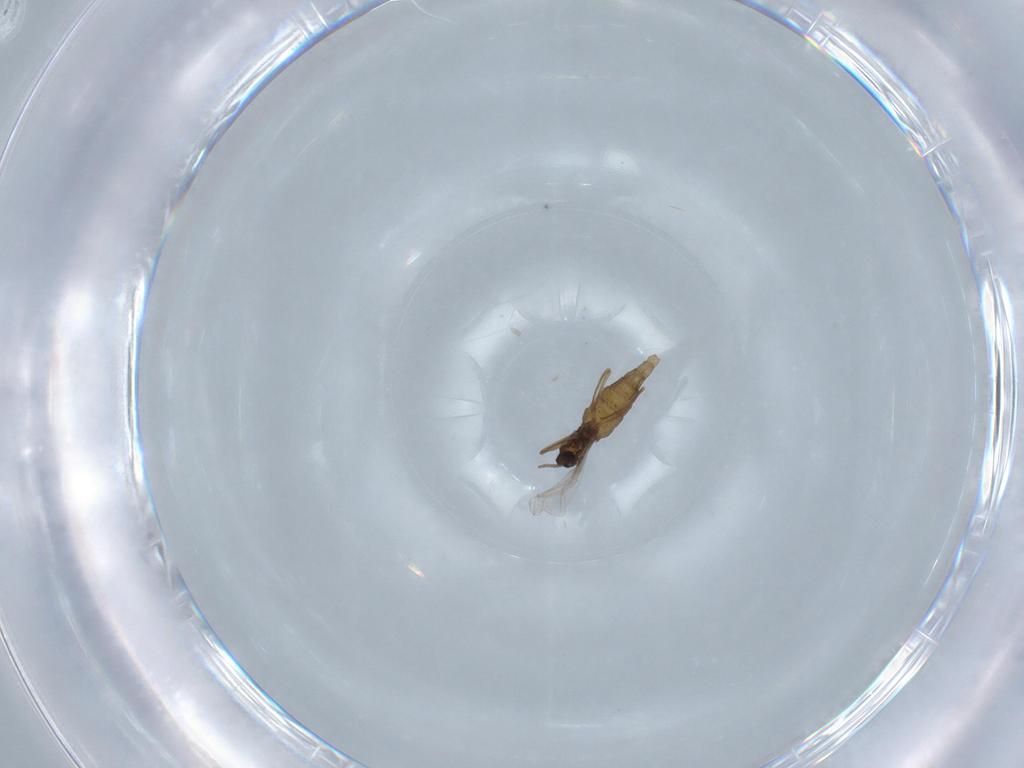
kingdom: Animalia
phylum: Arthropoda
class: Insecta
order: Diptera
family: Cecidomyiidae
